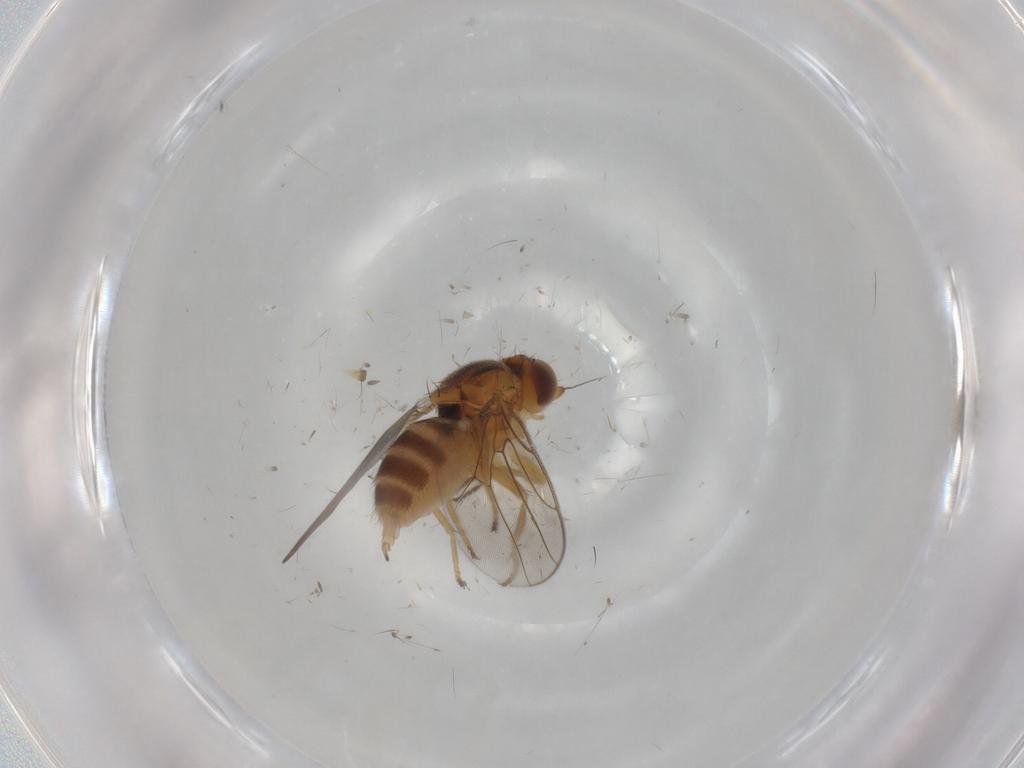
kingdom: Animalia
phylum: Arthropoda
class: Insecta
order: Diptera
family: Chloropidae
